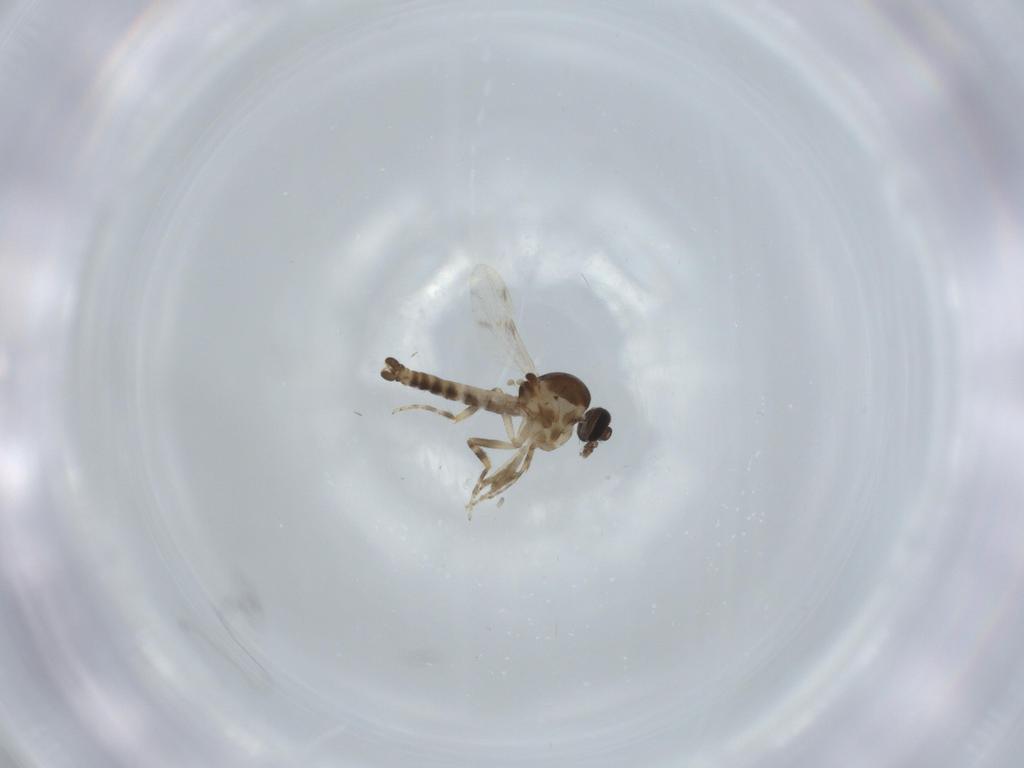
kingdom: Animalia
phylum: Arthropoda
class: Insecta
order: Diptera
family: Ceratopogonidae
